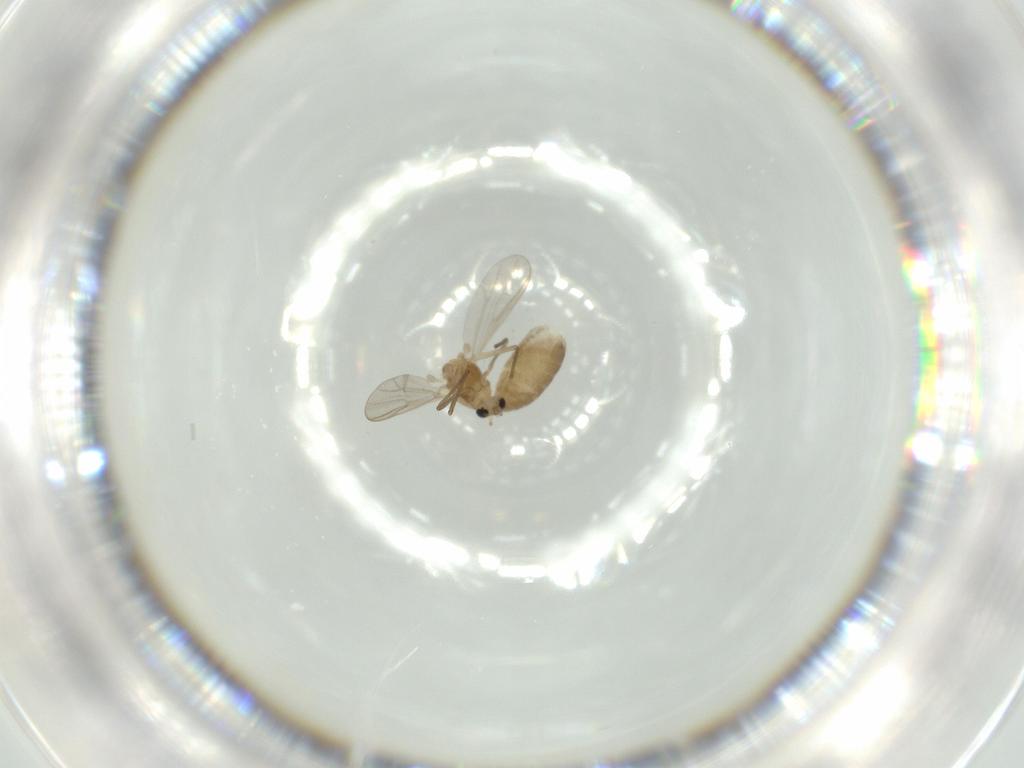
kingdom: Animalia
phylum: Arthropoda
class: Insecta
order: Diptera
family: Chironomidae
